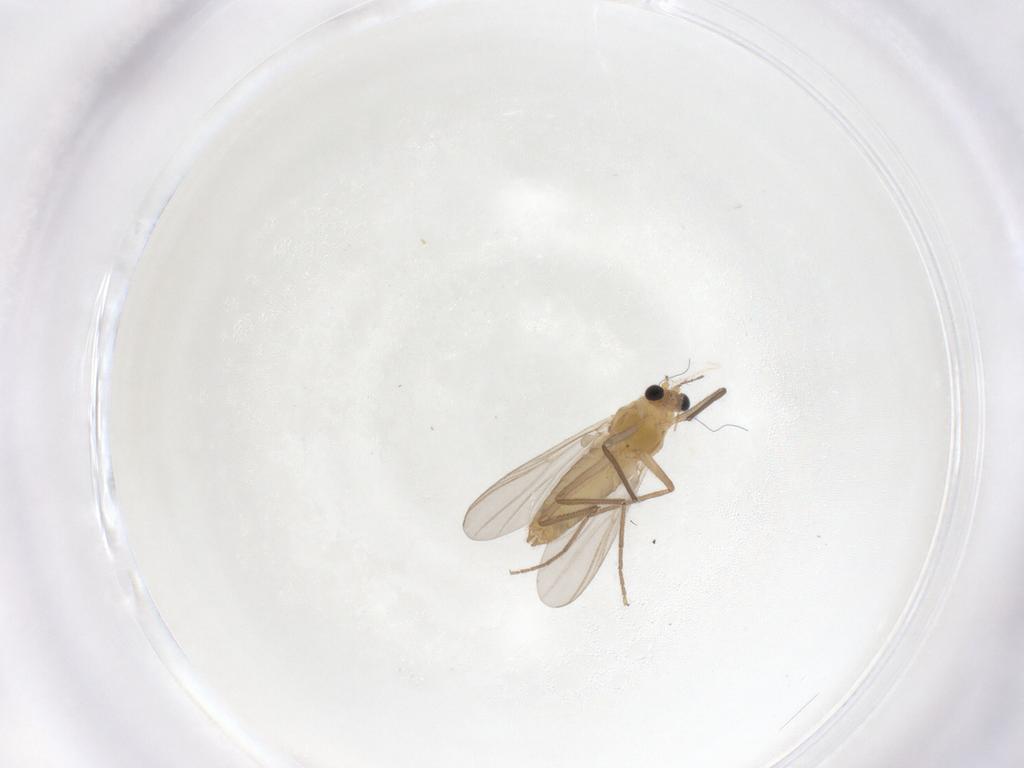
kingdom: Animalia
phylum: Arthropoda
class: Insecta
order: Diptera
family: Chironomidae
